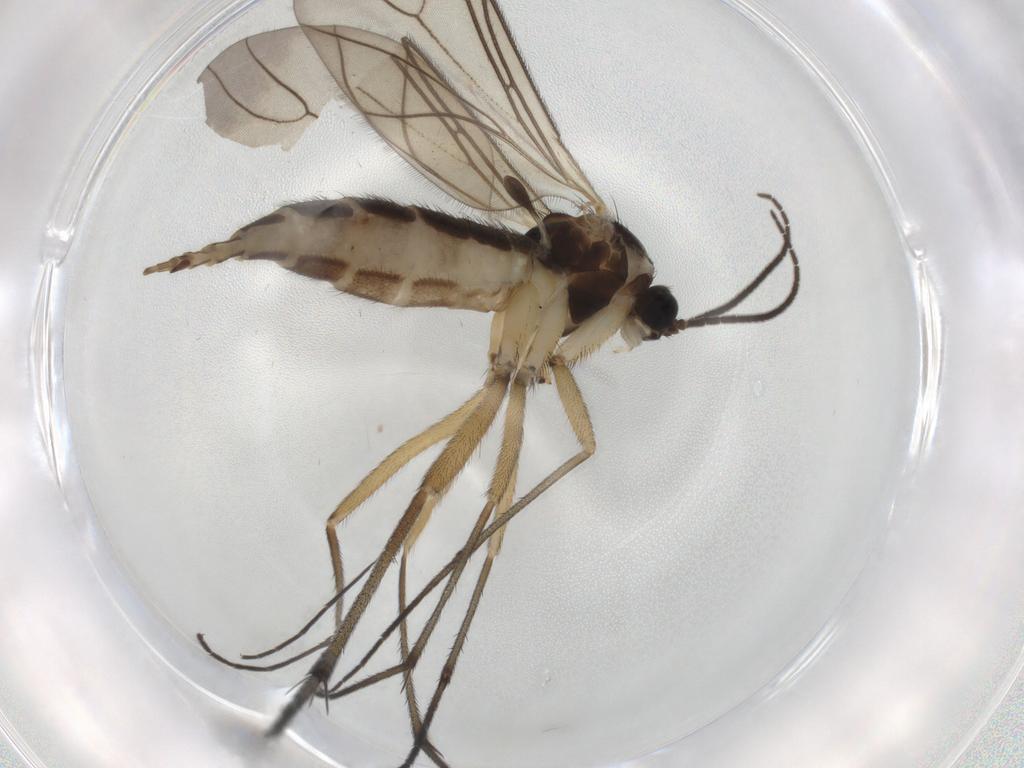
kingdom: Animalia
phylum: Arthropoda
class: Insecta
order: Diptera
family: Sciaridae
